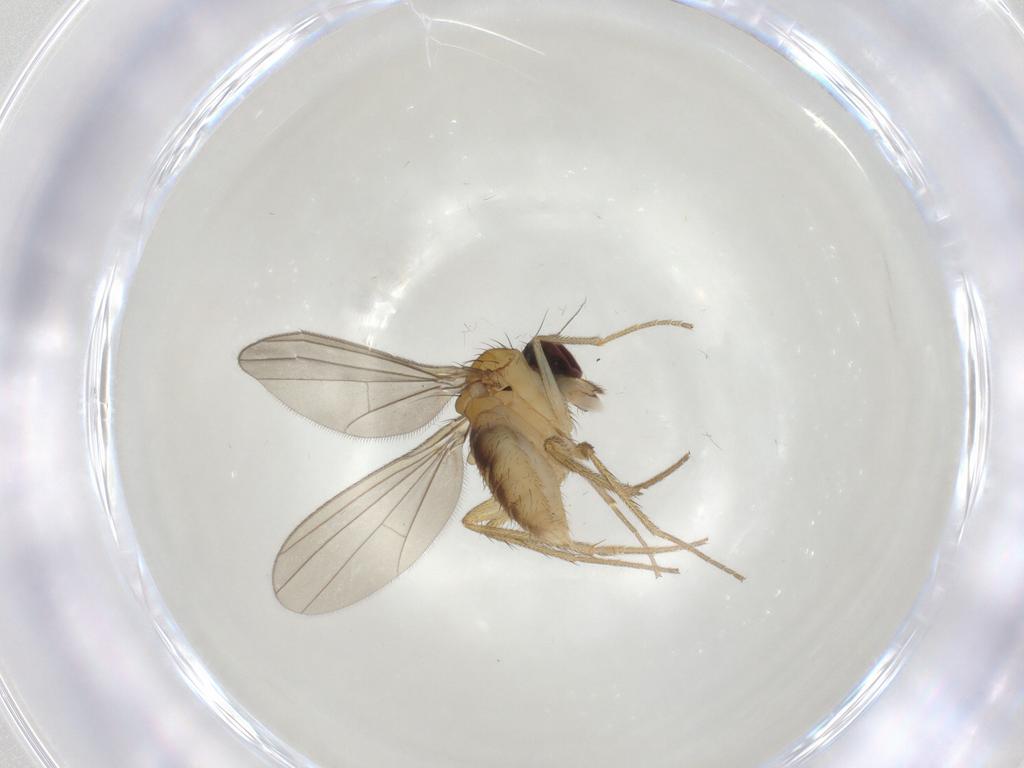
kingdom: Animalia
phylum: Arthropoda
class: Insecta
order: Diptera
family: Dolichopodidae
